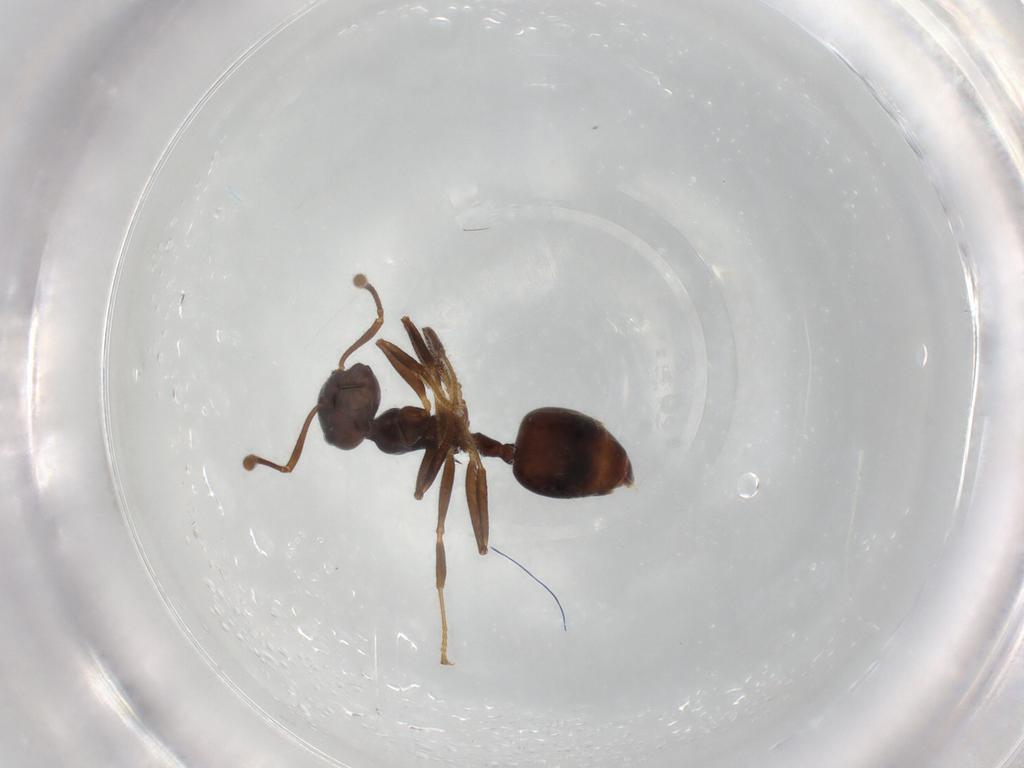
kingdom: Animalia
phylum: Arthropoda
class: Insecta
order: Hymenoptera
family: Formicidae
